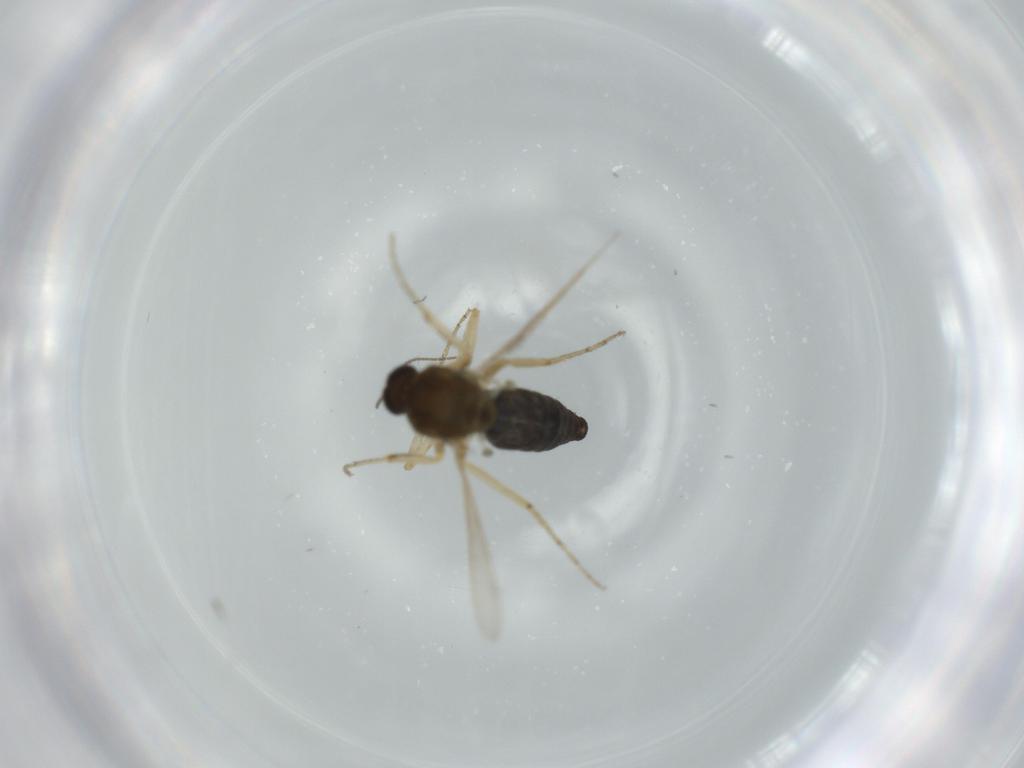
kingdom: Animalia
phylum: Arthropoda
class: Insecta
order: Diptera
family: Ceratopogonidae
